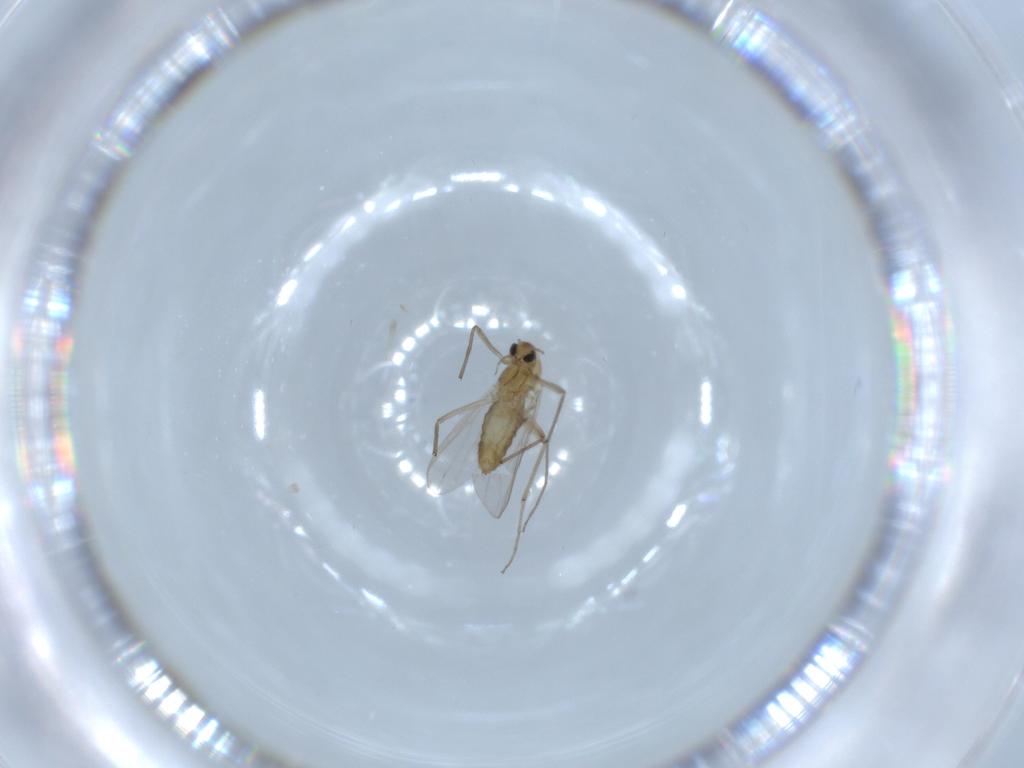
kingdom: Animalia
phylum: Arthropoda
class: Insecta
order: Diptera
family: Chironomidae
